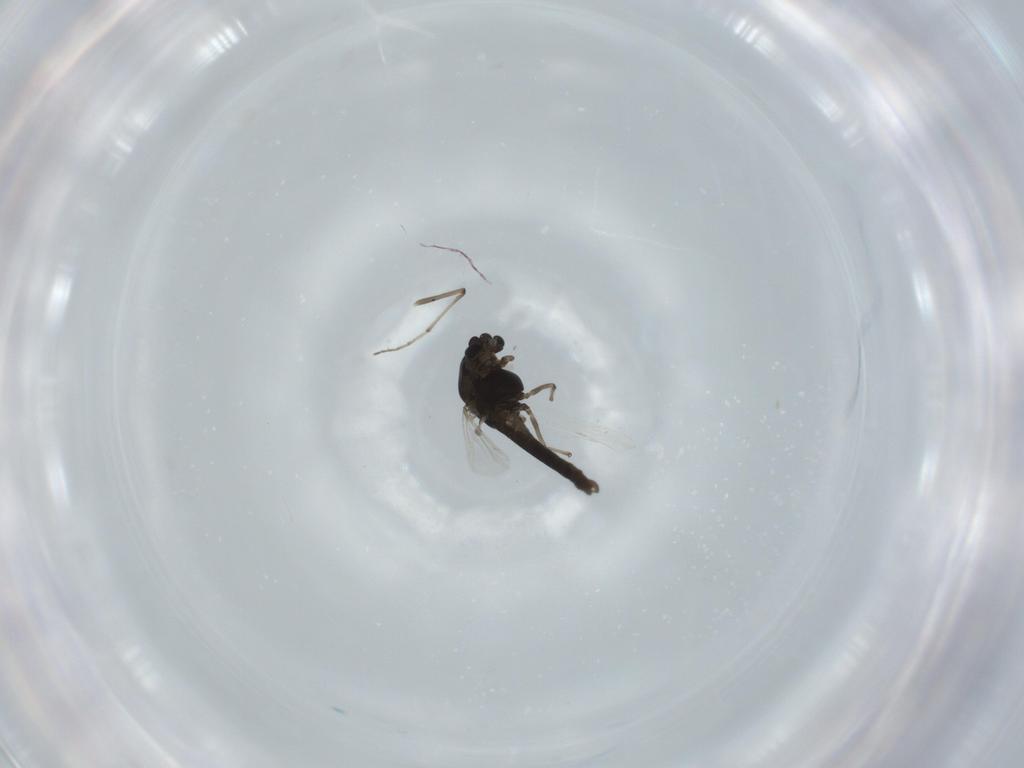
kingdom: Animalia
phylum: Arthropoda
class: Insecta
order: Diptera
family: Chironomidae
